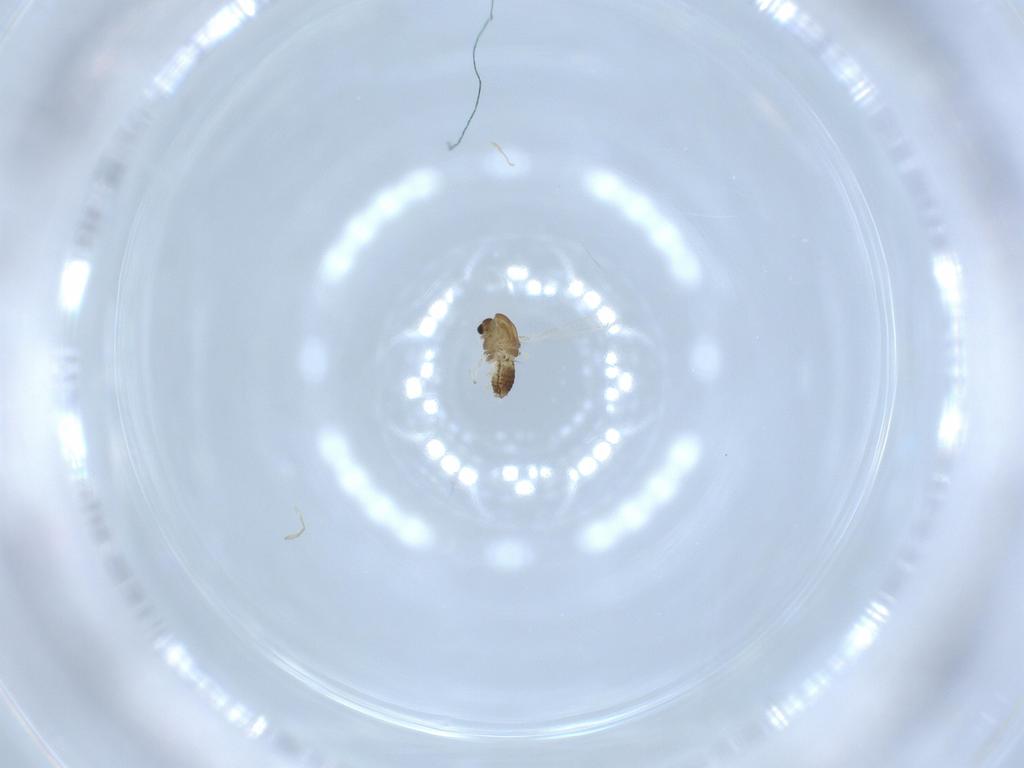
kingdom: Animalia
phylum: Arthropoda
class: Insecta
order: Diptera
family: Chironomidae
